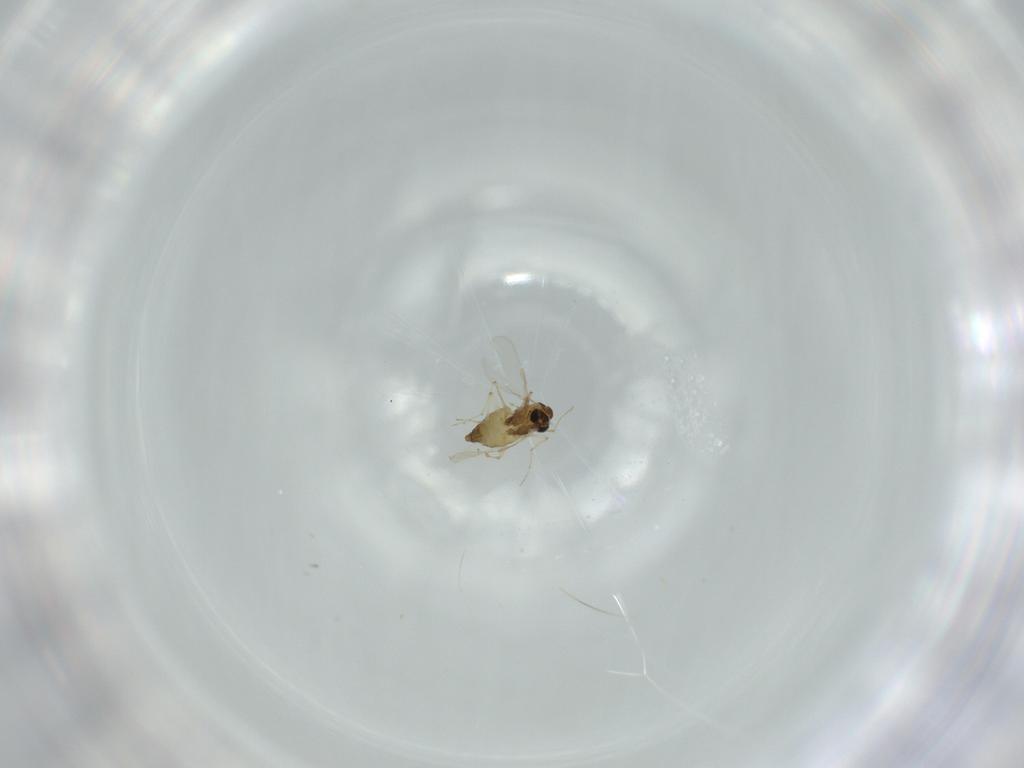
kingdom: Animalia
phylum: Arthropoda
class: Insecta
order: Diptera
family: Chironomidae
